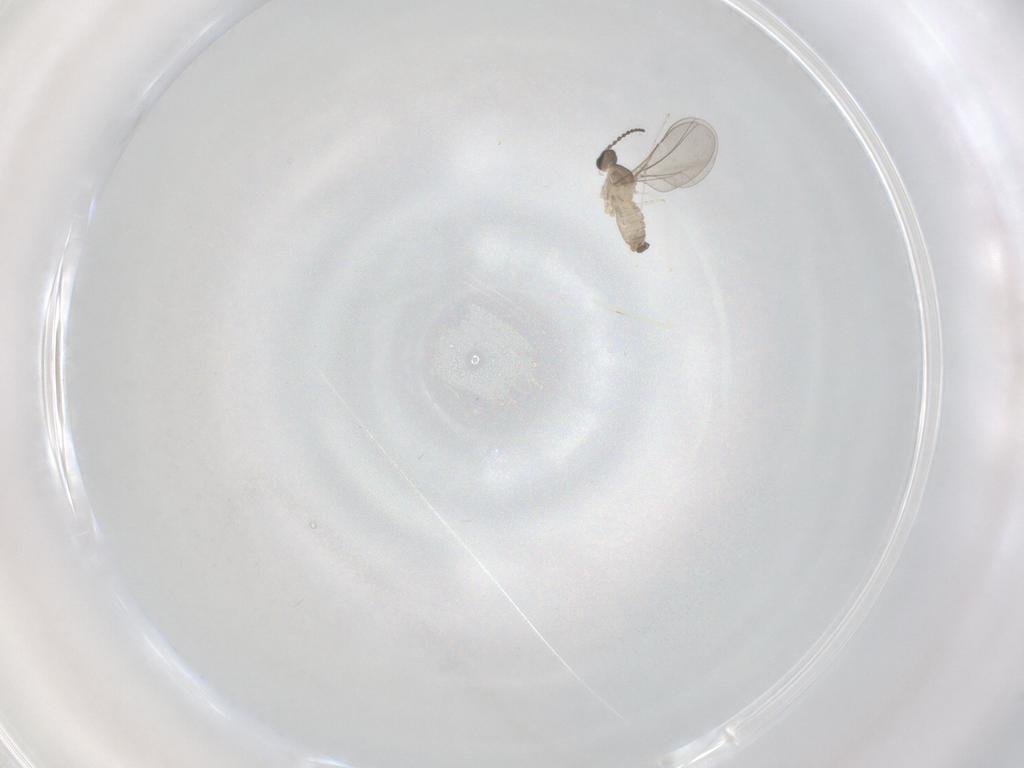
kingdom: Animalia
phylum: Arthropoda
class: Insecta
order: Diptera
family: Cecidomyiidae
